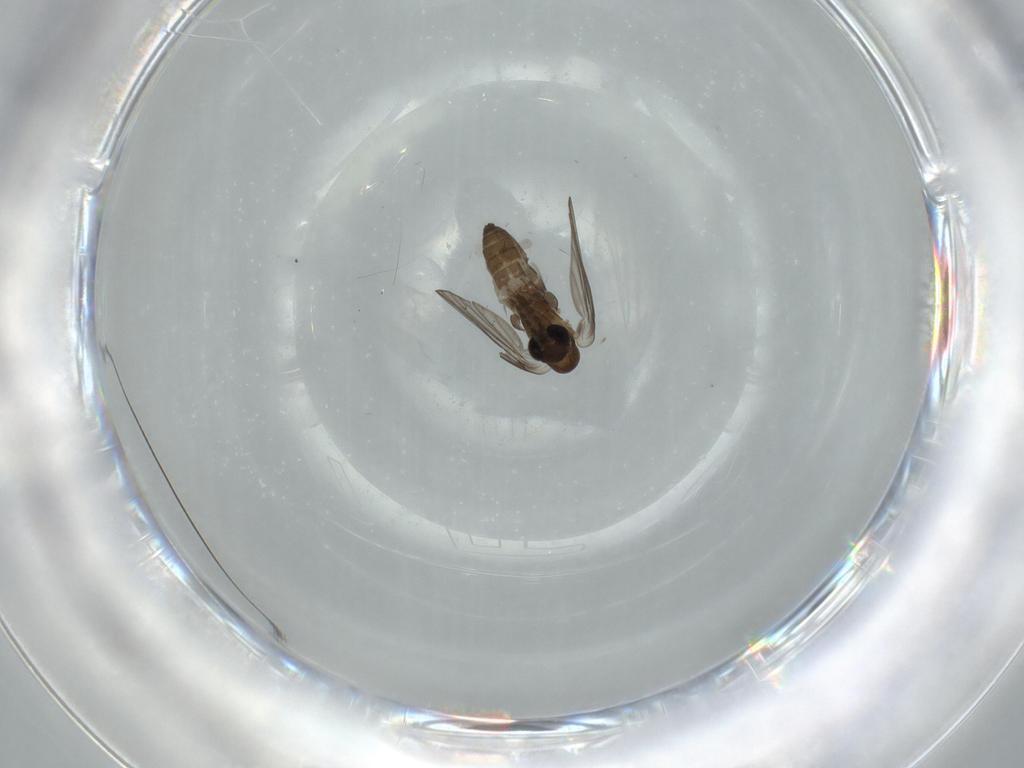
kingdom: Animalia
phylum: Arthropoda
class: Insecta
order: Diptera
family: Psychodidae
